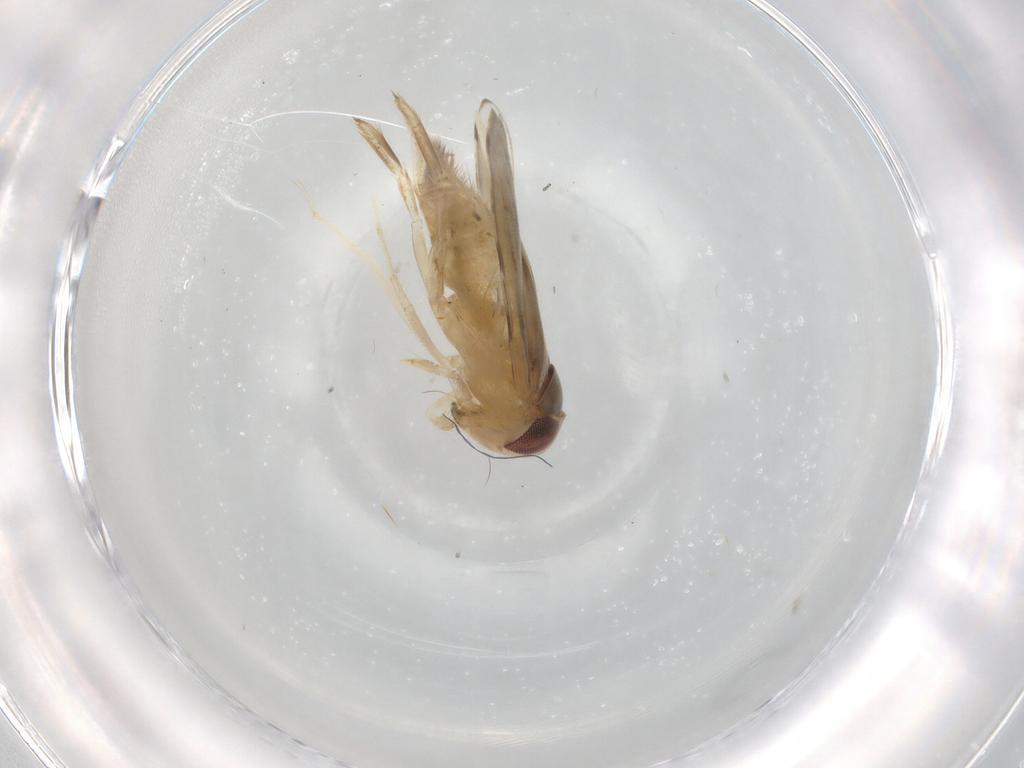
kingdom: Animalia
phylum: Arthropoda
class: Insecta
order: Hemiptera
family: Corixidae
